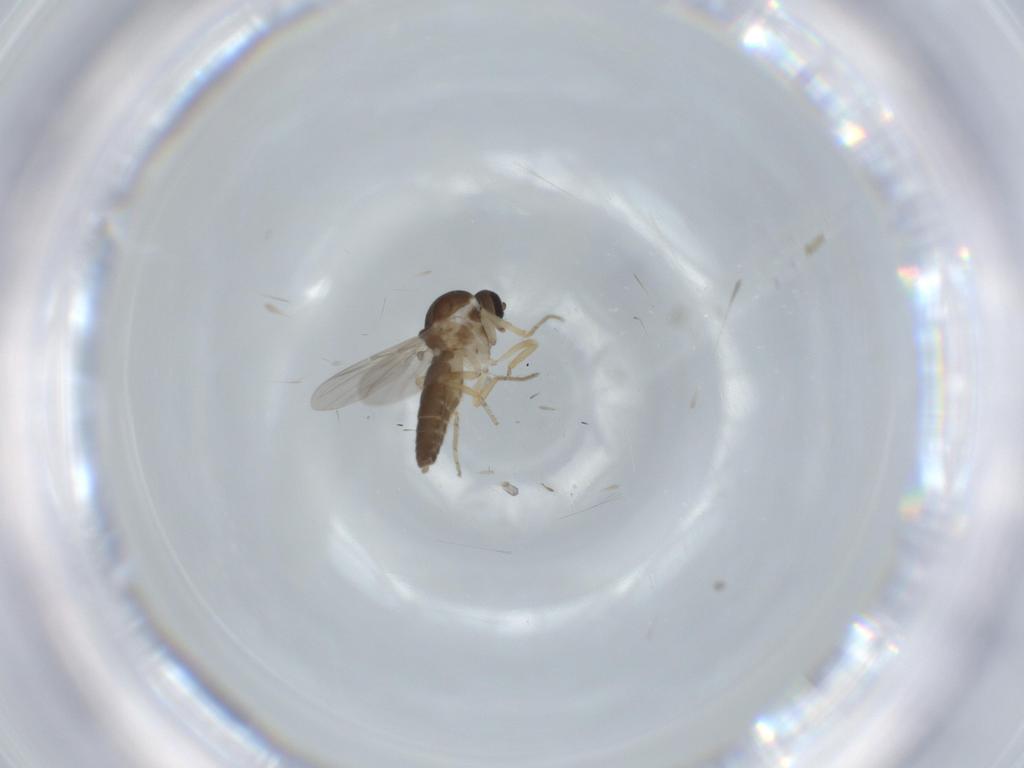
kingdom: Animalia
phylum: Arthropoda
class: Insecta
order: Diptera
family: Ceratopogonidae
